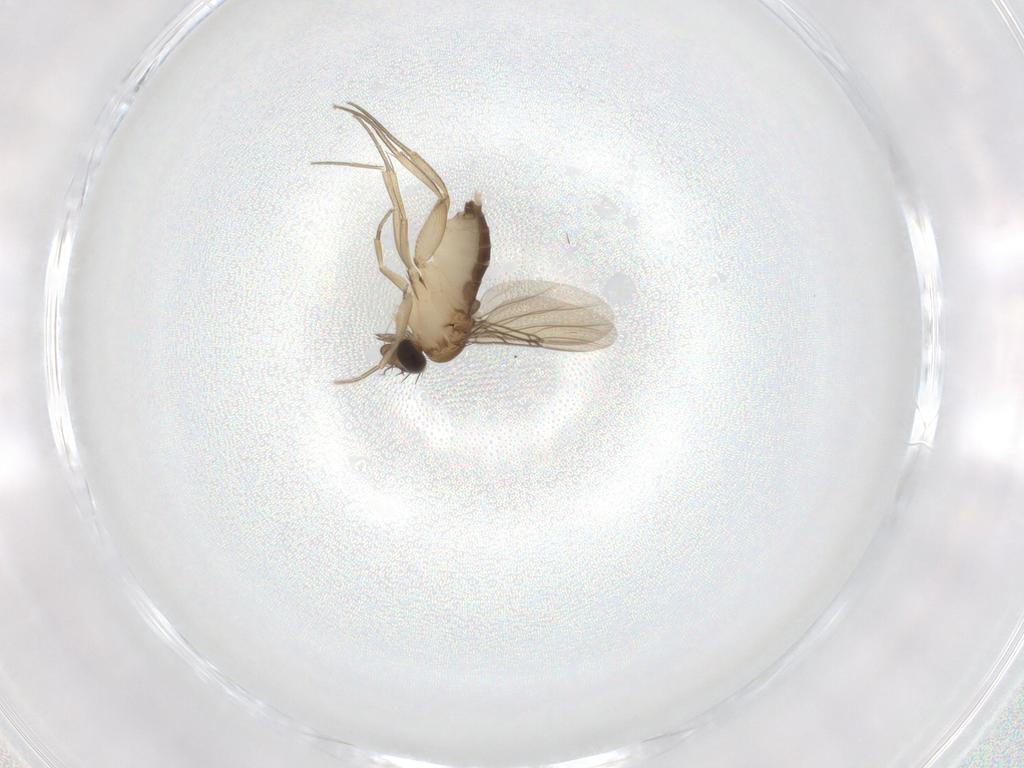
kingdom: Animalia
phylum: Arthropoda
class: Insecta
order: Diptera
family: Phoridae
